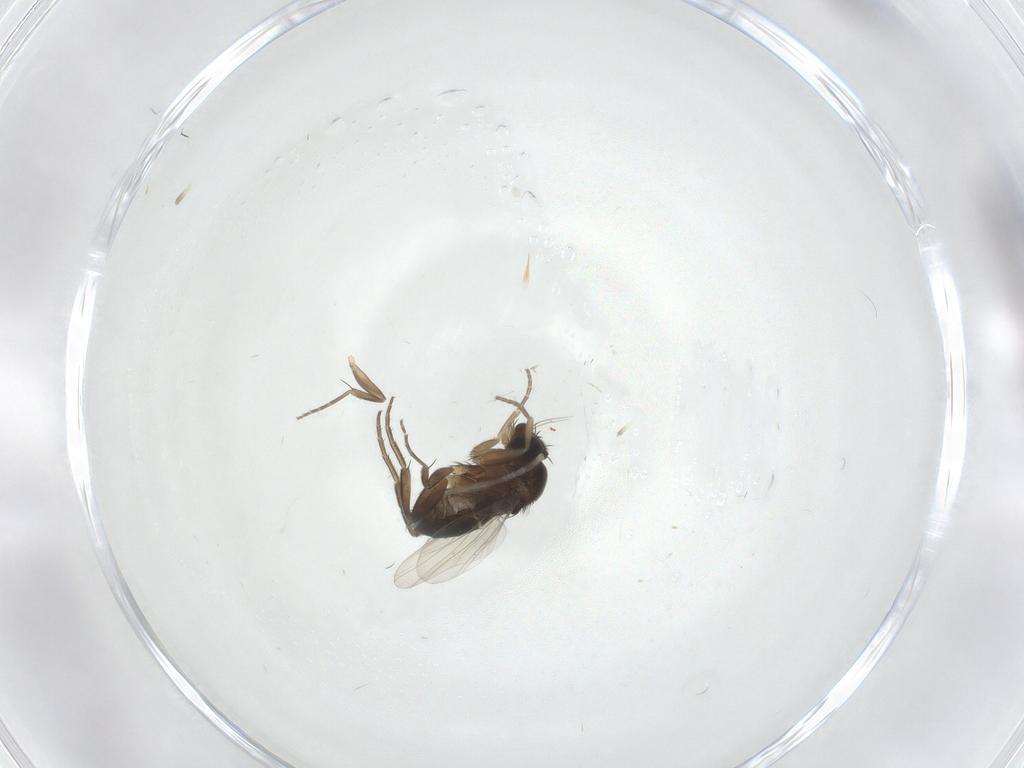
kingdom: Animalia
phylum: Arthropoda
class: Insecta
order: Diptera
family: Phoridae
